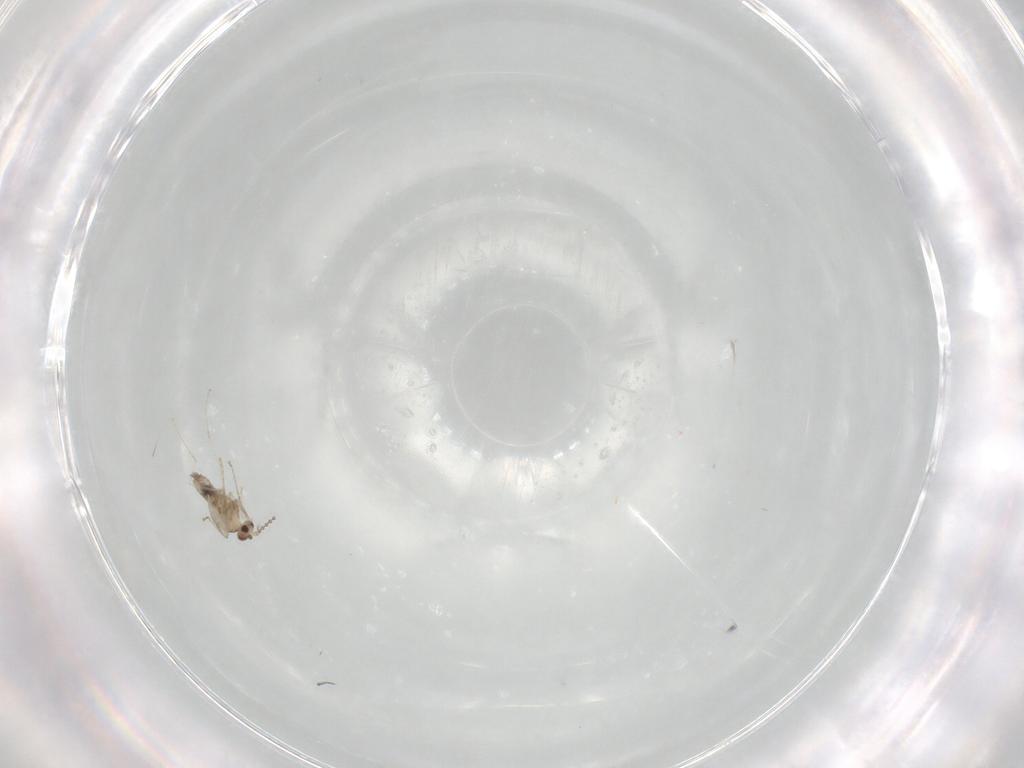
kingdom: Animalia
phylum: Arthropoda
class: Insecta
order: Diptera
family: Cecidomyiidae
